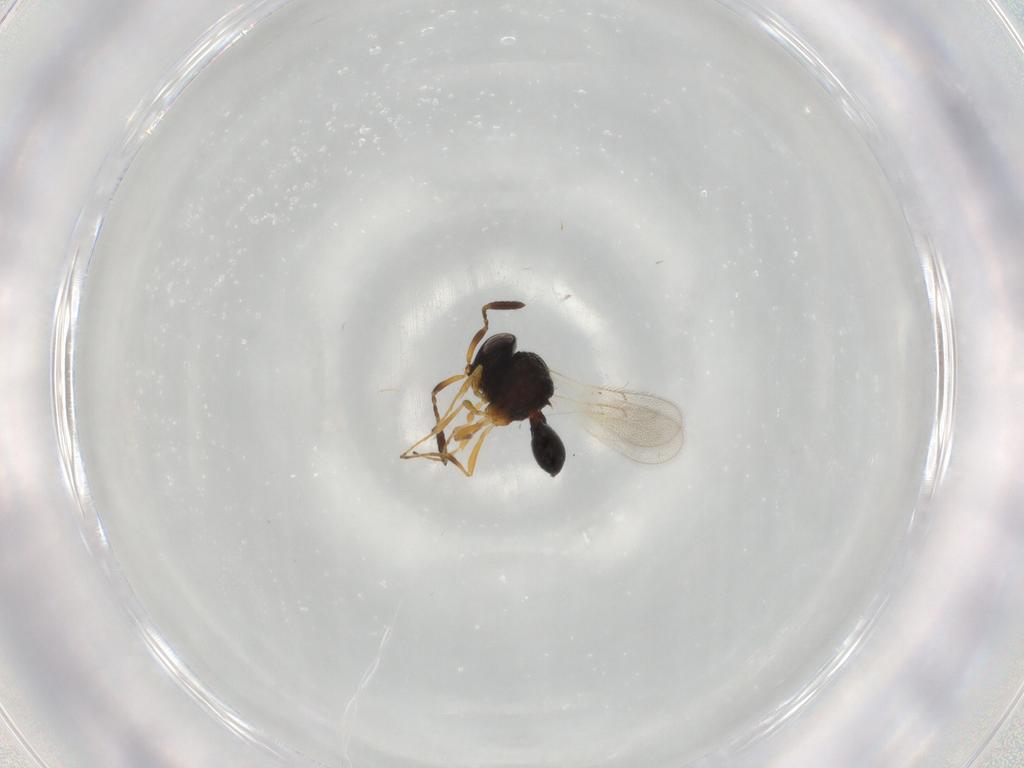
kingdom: Animalia
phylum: Arthropoda
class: Insecta
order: Hymenoptera
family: Scelionidae
